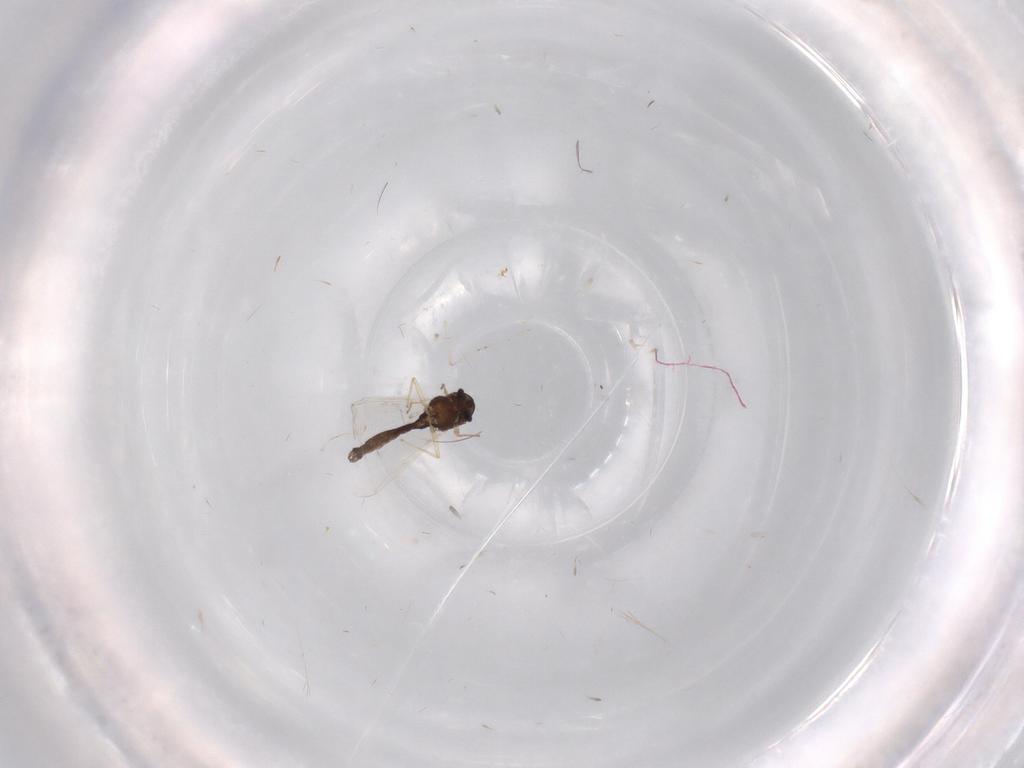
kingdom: Animalia
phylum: Arthropoda
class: Insecta
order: Diptera
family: Chironomidae
